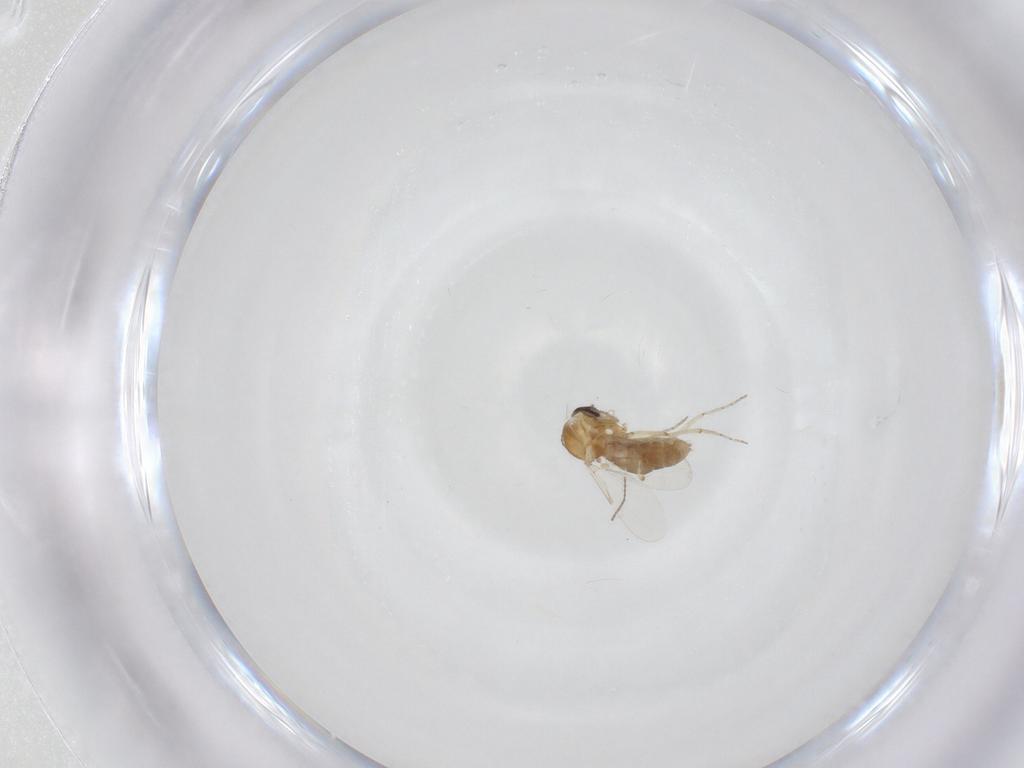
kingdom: Animalia
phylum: Arthropoda
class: Insecta
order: Diptera
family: Ceratopogonidae
